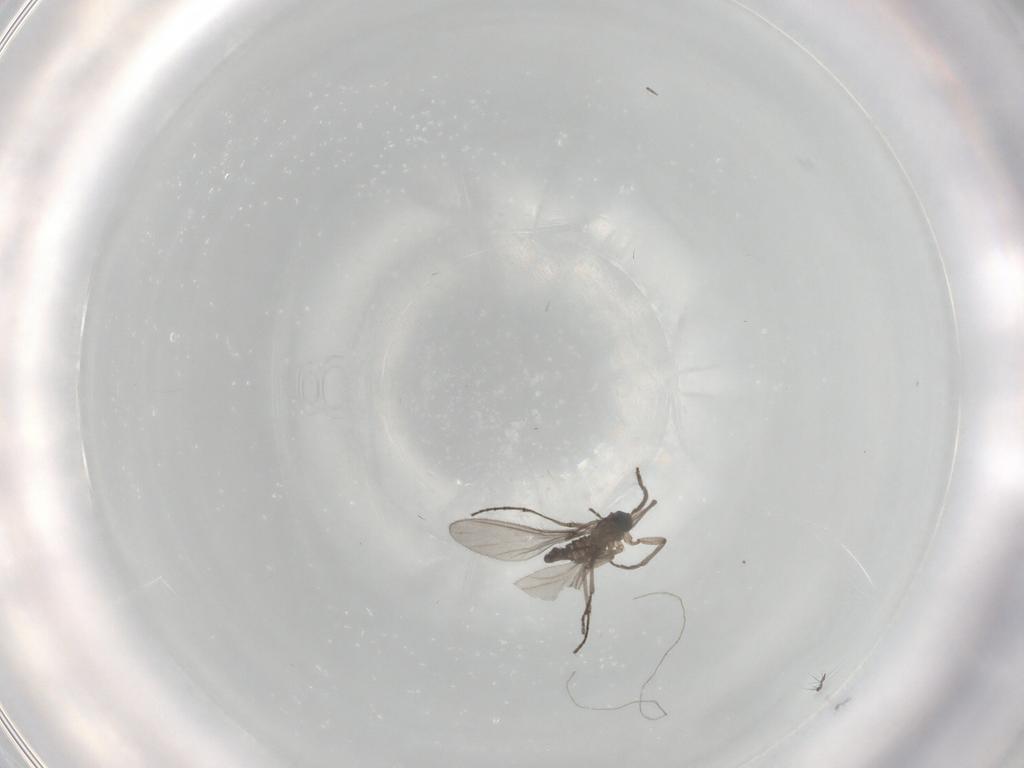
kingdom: Animalia
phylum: Arthropoda
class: Insecta
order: Diptera
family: Sciaridae
